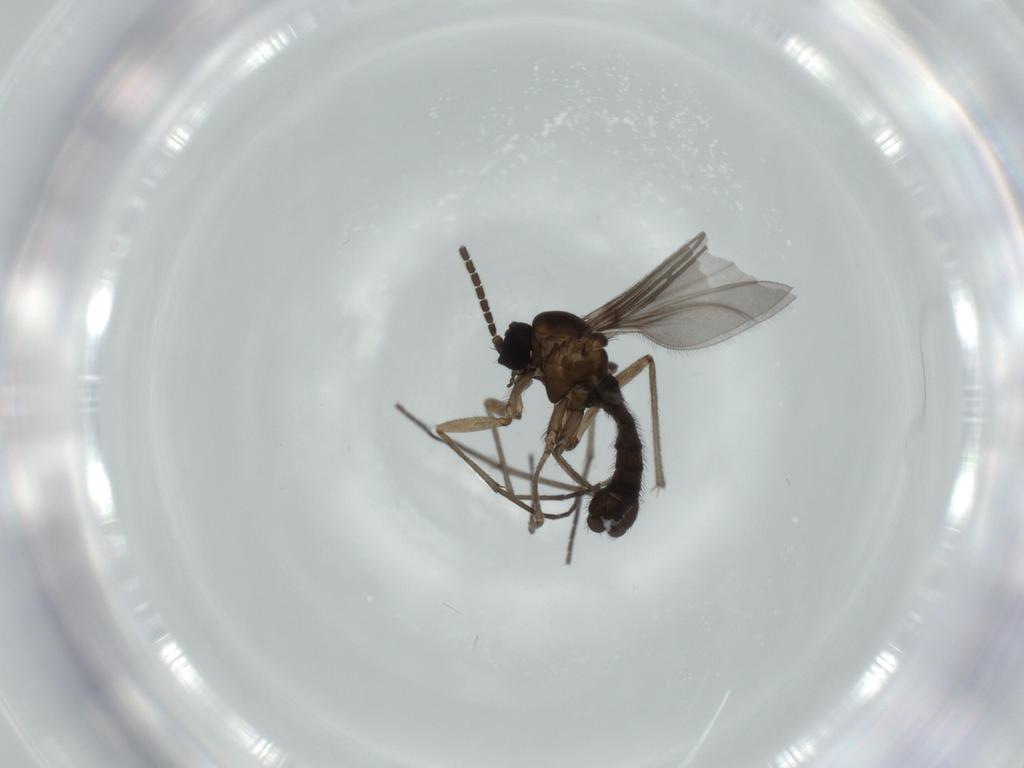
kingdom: Animalia
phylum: Arthropoda
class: Insecta
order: Diptera
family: Sciaridae
